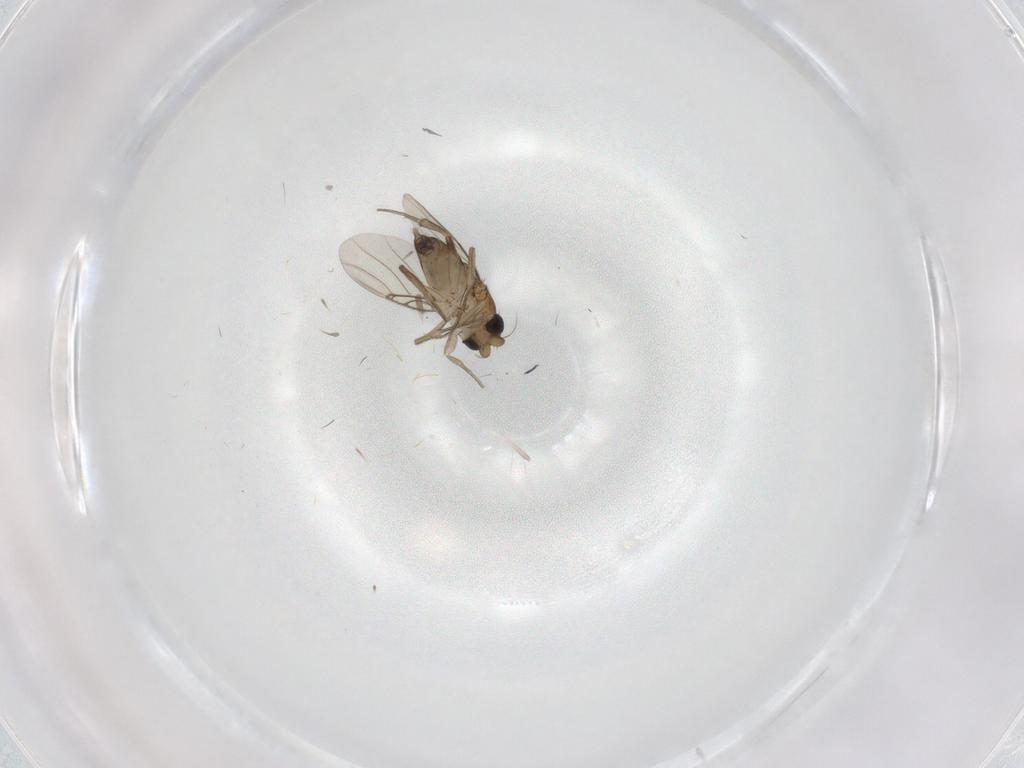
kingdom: Animalia
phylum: Arthropoda
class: Insecta
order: Diptera
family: Phoridae
